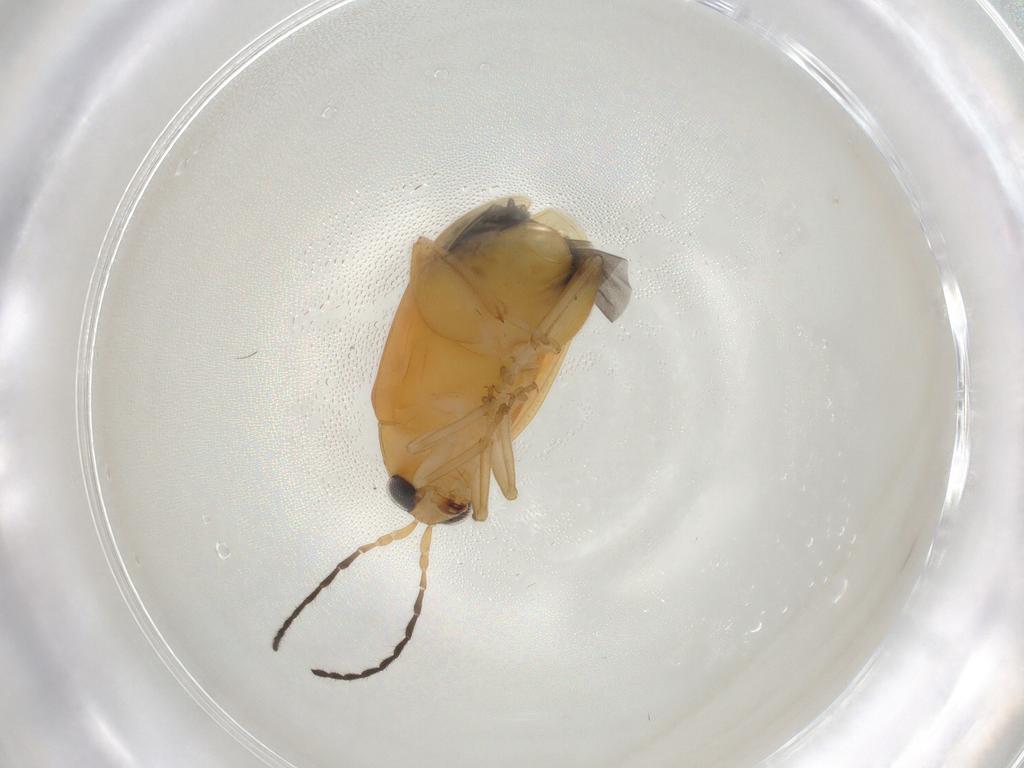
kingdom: Animalia
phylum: Arthropoda
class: Insecta
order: Coleoptera
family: Chrysomelidae
